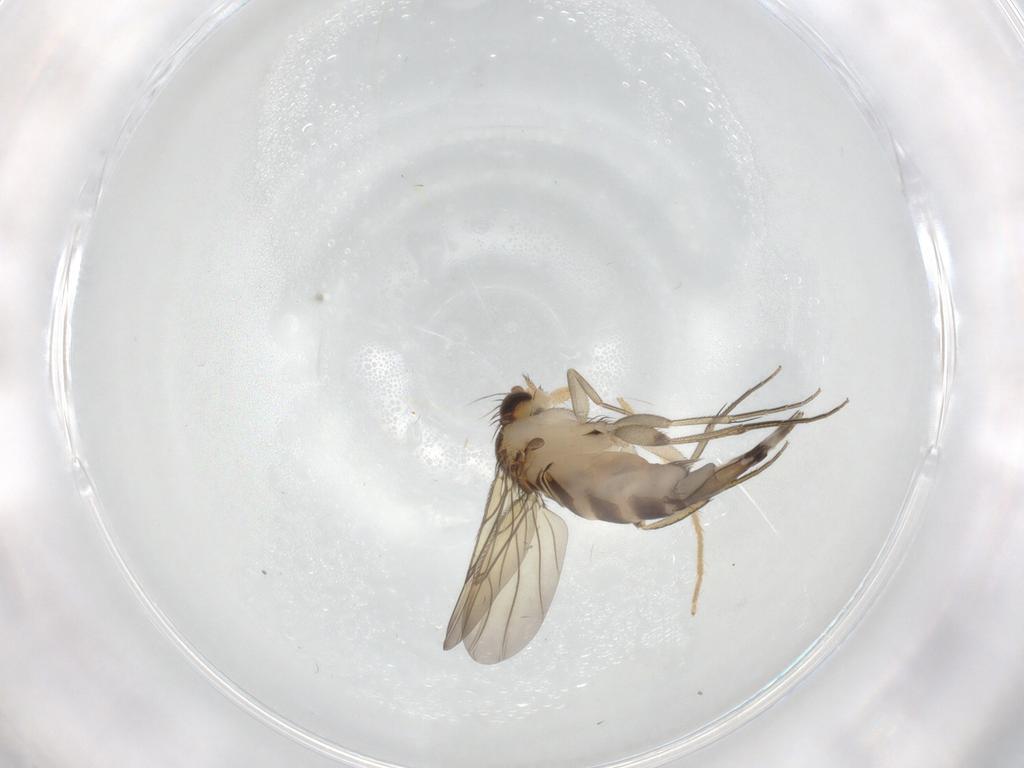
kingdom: Animalia
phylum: Arthropoda
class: Insecta
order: Diptera
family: Phoridae
